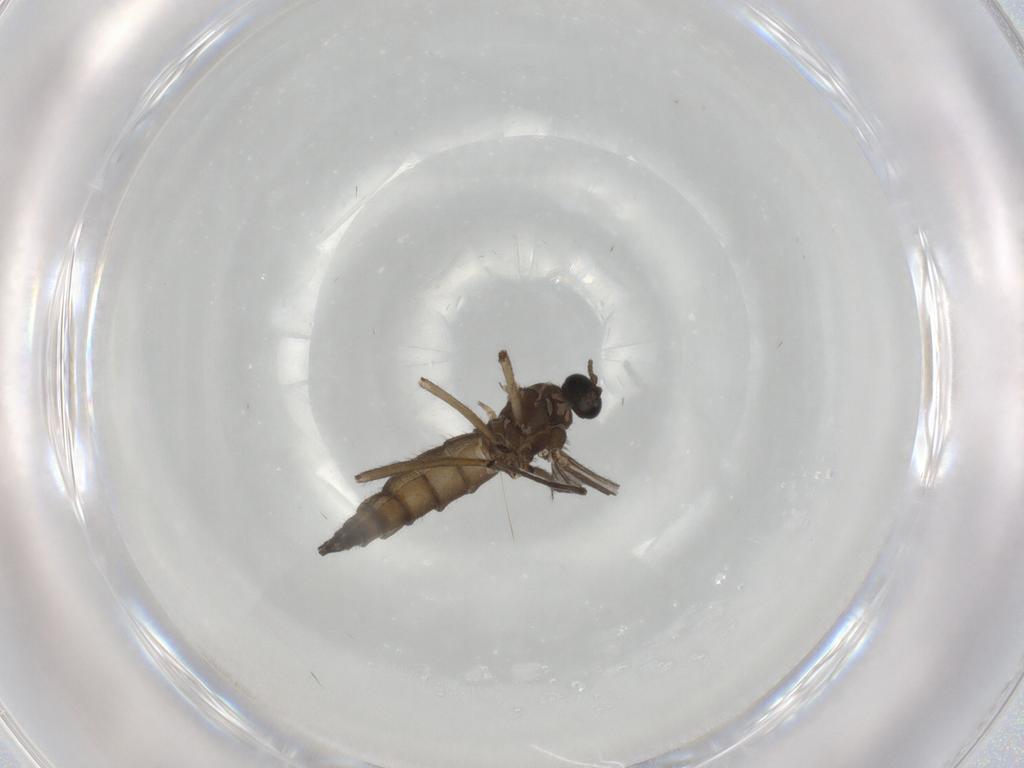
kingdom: Animalia
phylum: Arthropoda
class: Insecta
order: Diptera
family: Sciaridae
